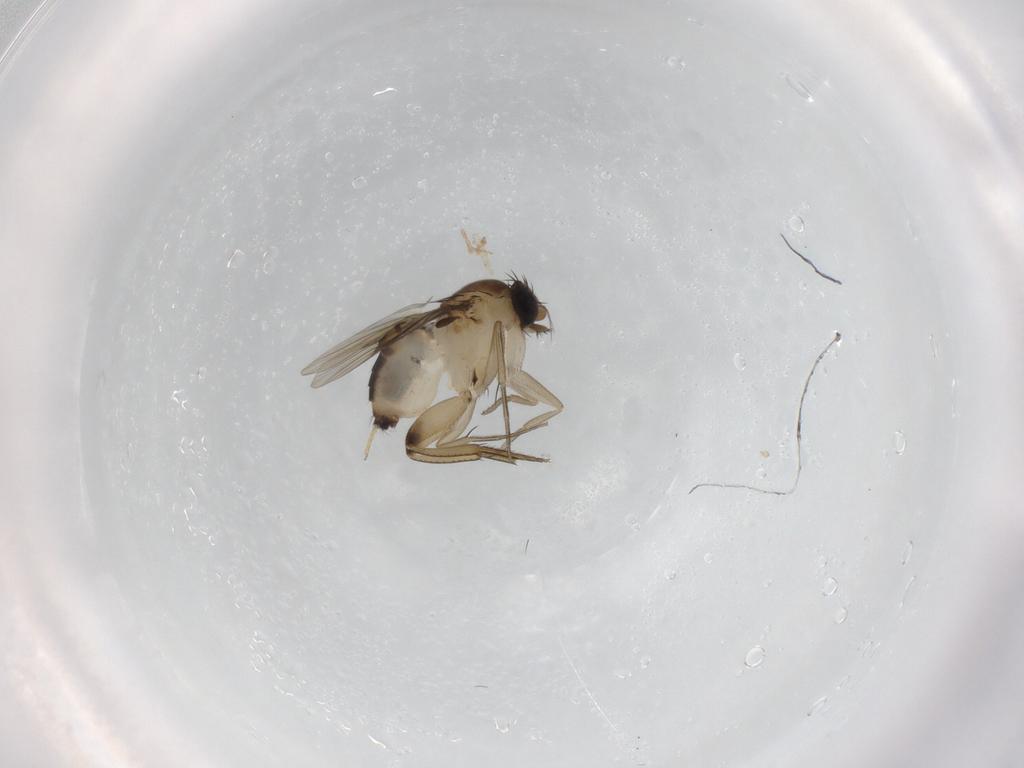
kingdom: Animalia
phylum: Arthropoda
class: Insecta
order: Diptera
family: Phoridae
